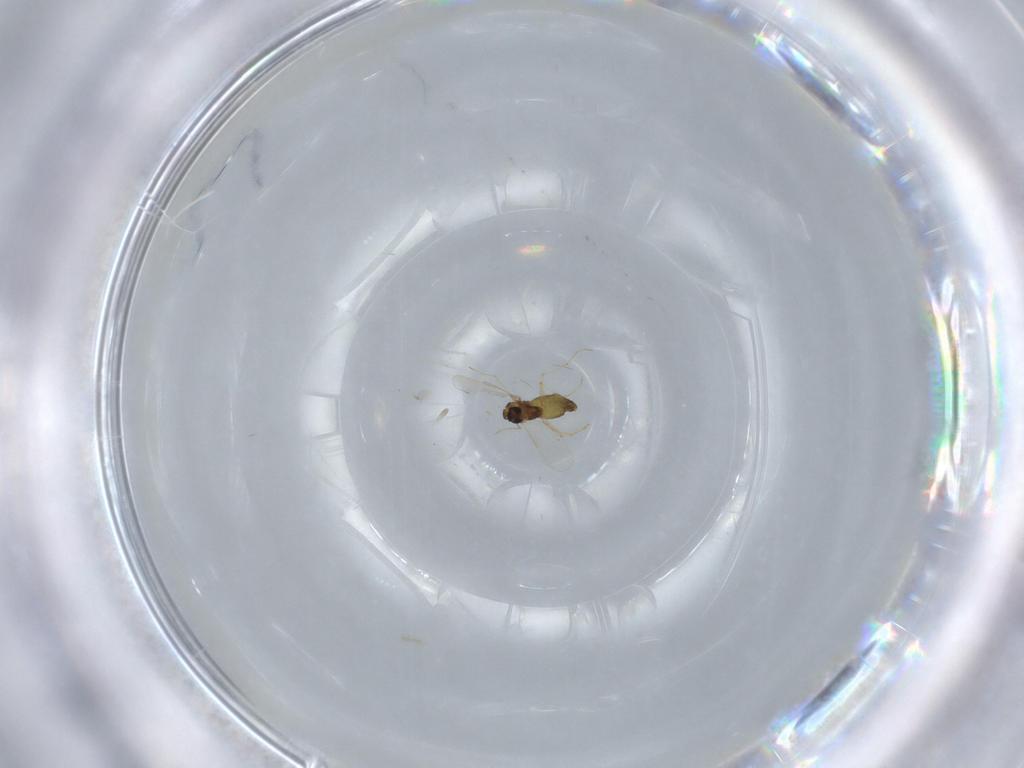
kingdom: Animalia
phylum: Arthropoda
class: Insecta
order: Diptera
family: Chironomidae
